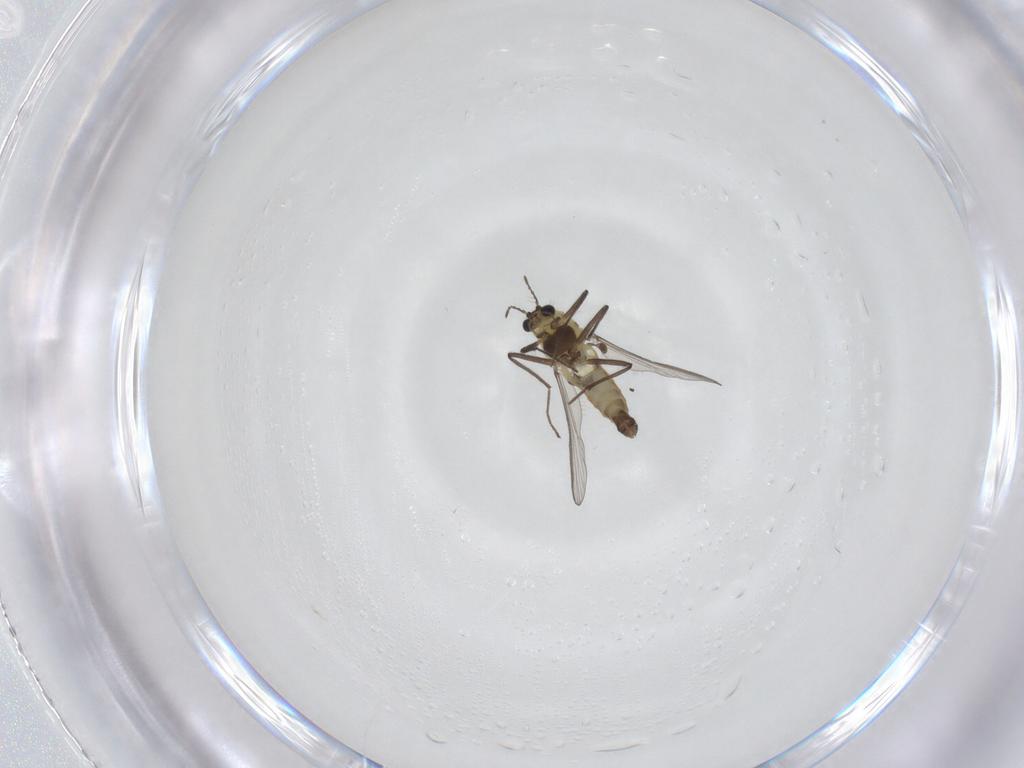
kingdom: Animalia
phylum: Arthropoda
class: Insecta
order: Diptera
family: Chironomidae
